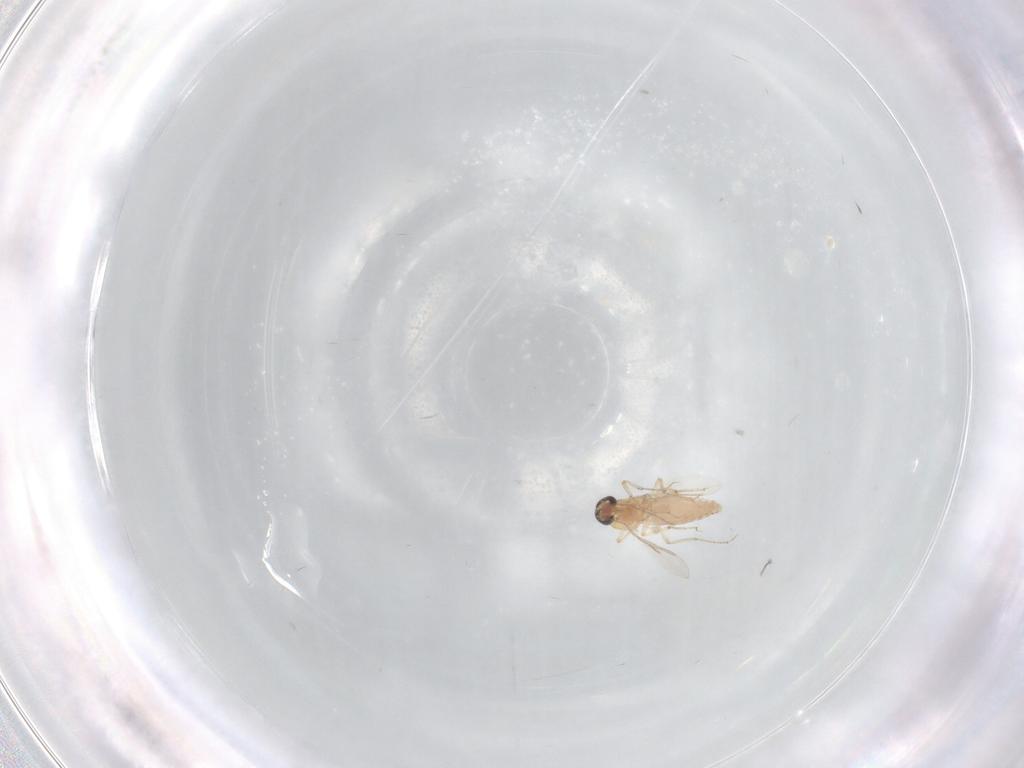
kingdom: Animalia
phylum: Arthropoda
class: Insecta
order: Diptera
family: Ceratopogonidae
